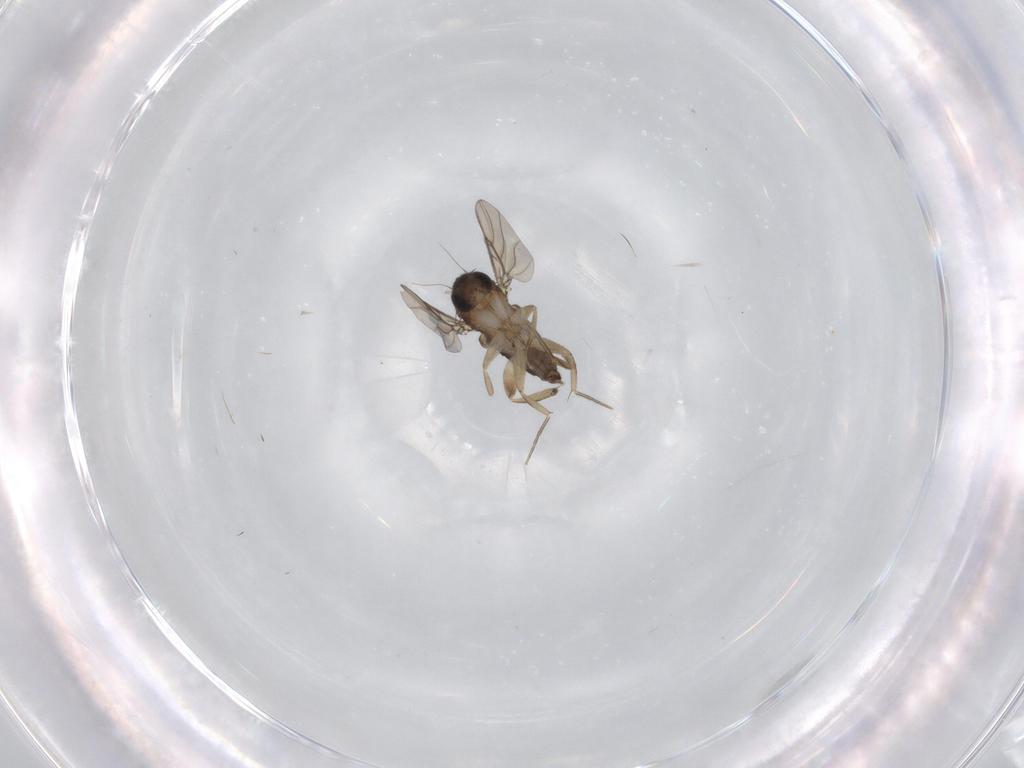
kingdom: Animalia
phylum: Arthropoda
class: Insecta
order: Diptera
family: Phoridae
